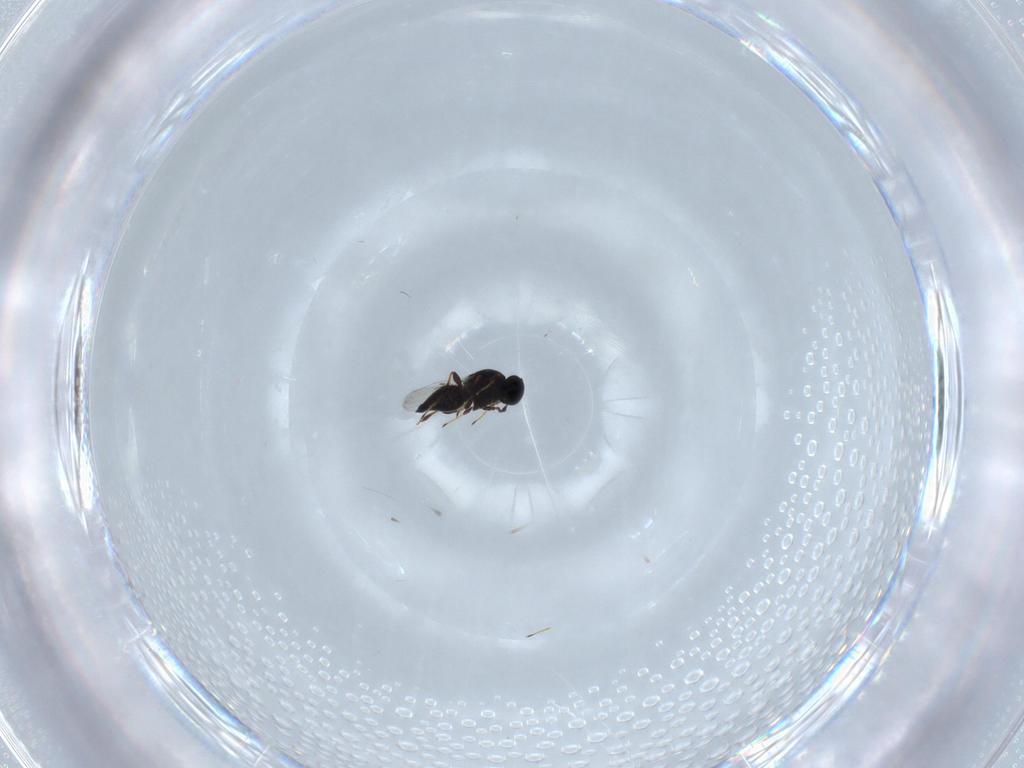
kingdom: Animalia
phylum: Arthropoda
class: Insecta
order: Hymenoptera
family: Platygastridae
